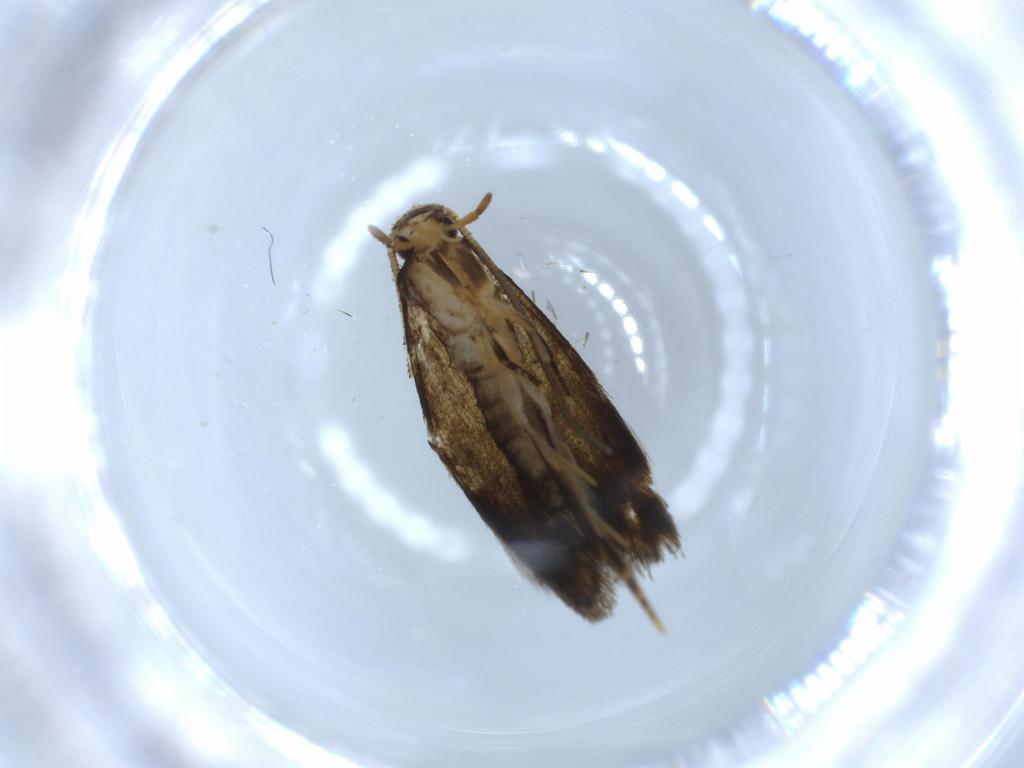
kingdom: Animalia
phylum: Arthropoda
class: Insecta
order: Lepidoptera
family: Tineidae
